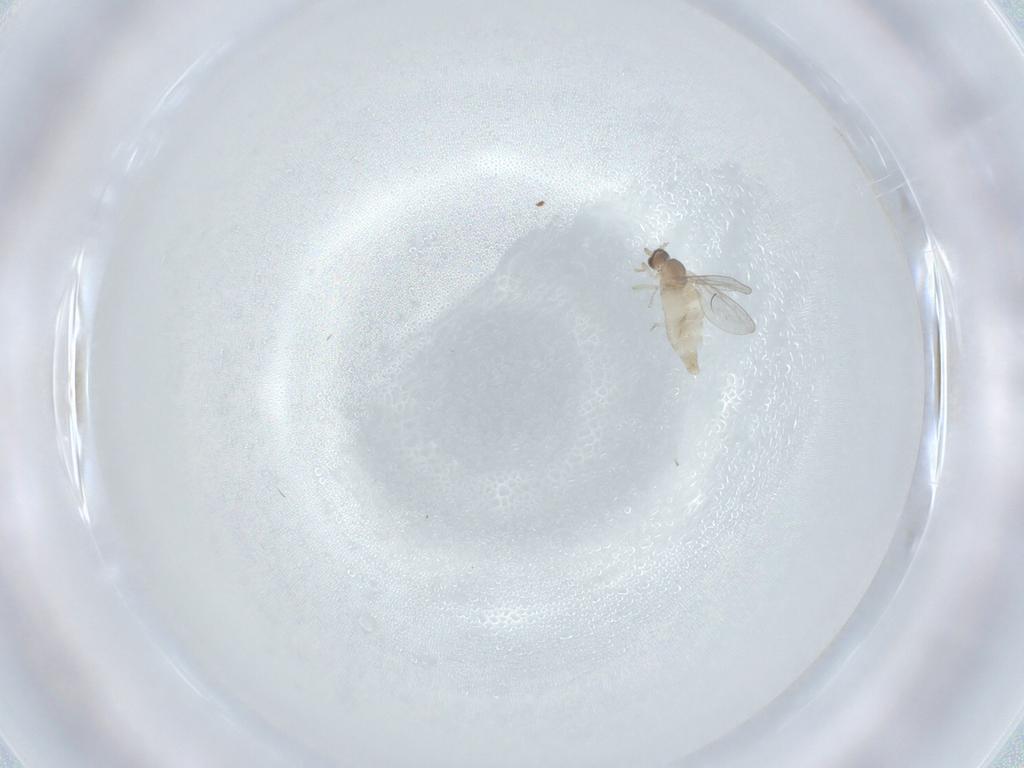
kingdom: Animalia
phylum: Arthropoda
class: Insecta
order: Diptera
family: Cecidomyiidae
